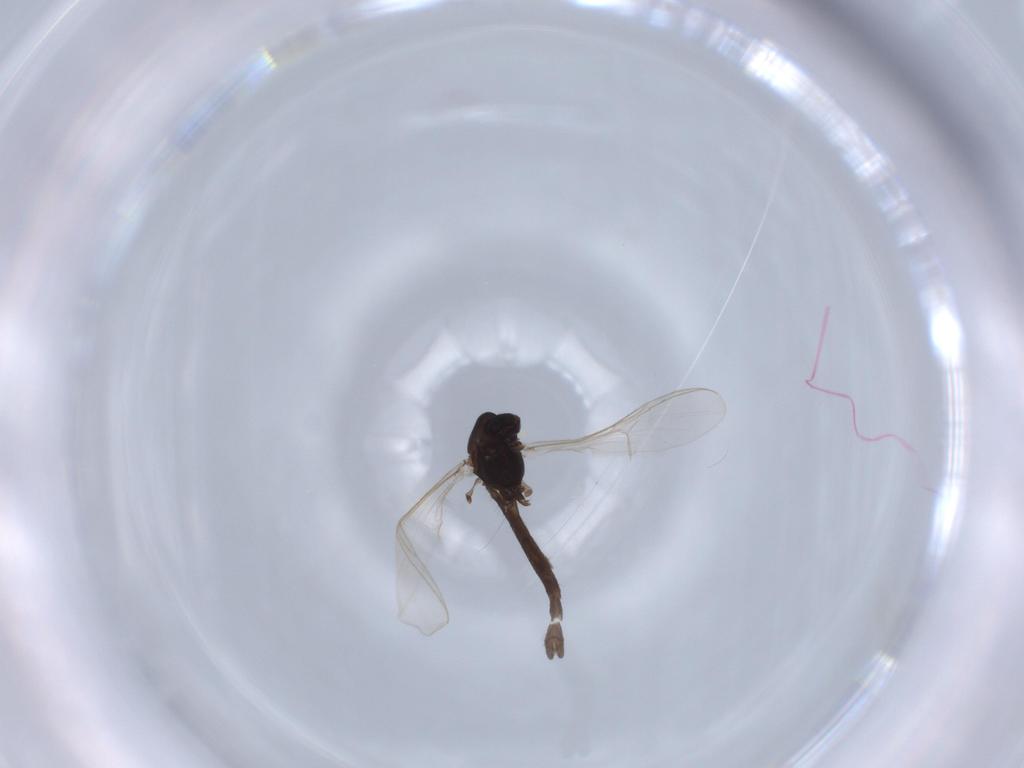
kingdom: Animalia
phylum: Arthropoda
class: Insecta
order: Diptera
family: Chironomidae
